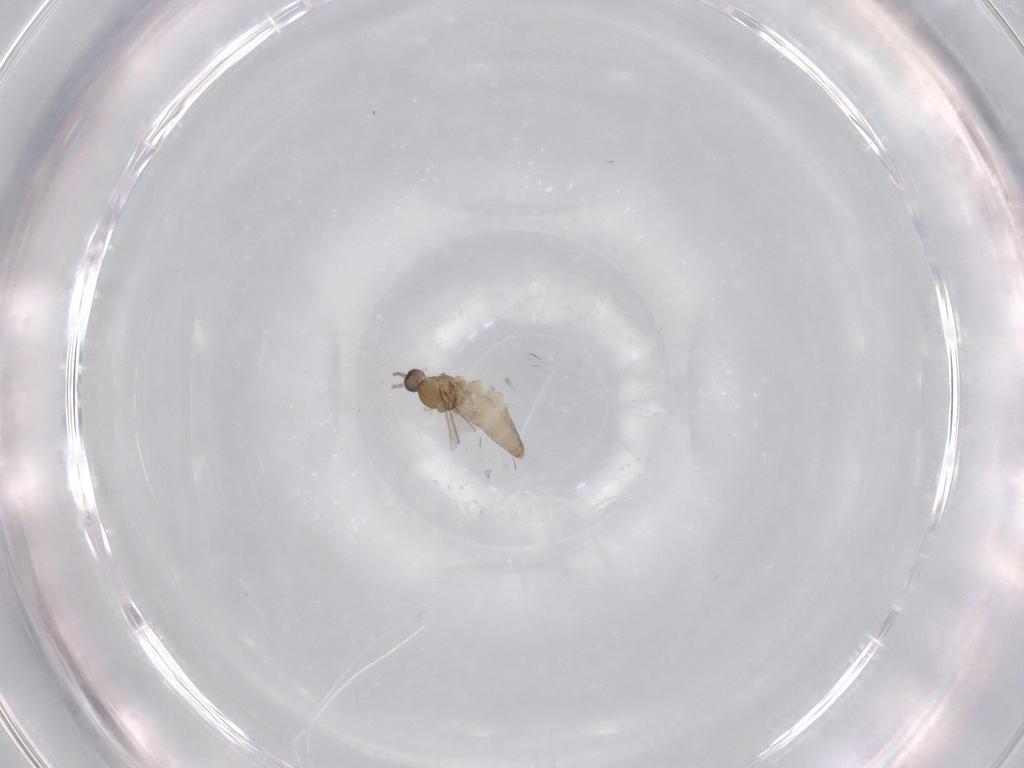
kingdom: Animalia
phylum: Arthropoda
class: Insecta
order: Diptera
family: Cecidomyiidae
